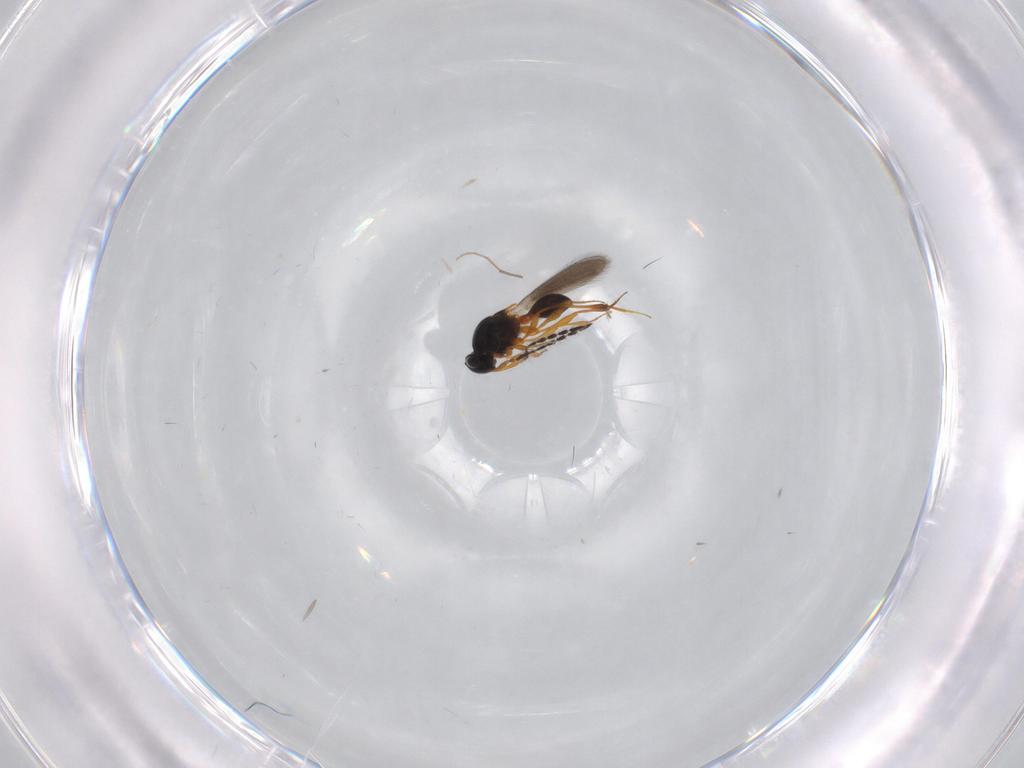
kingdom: Animalia
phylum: Arthropoda
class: Insecta
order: Hymenoptera
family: Platygastridae
